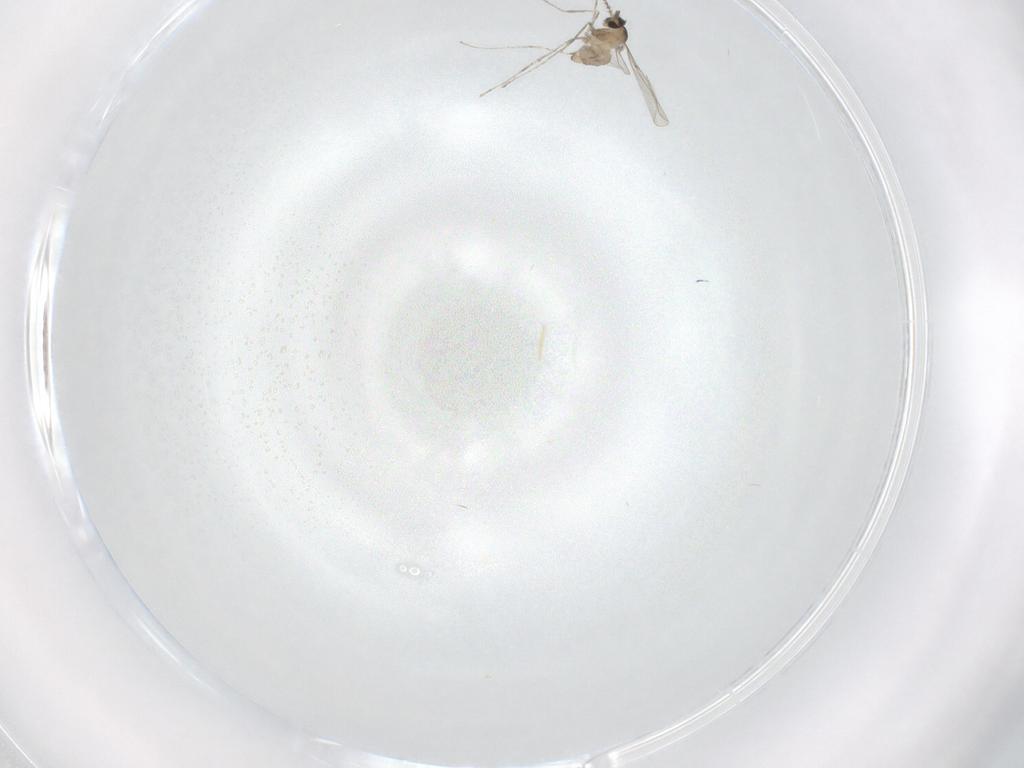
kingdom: Animalia
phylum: Arthropoda
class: Insecta
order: Diptera
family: Cecidomyiidae
